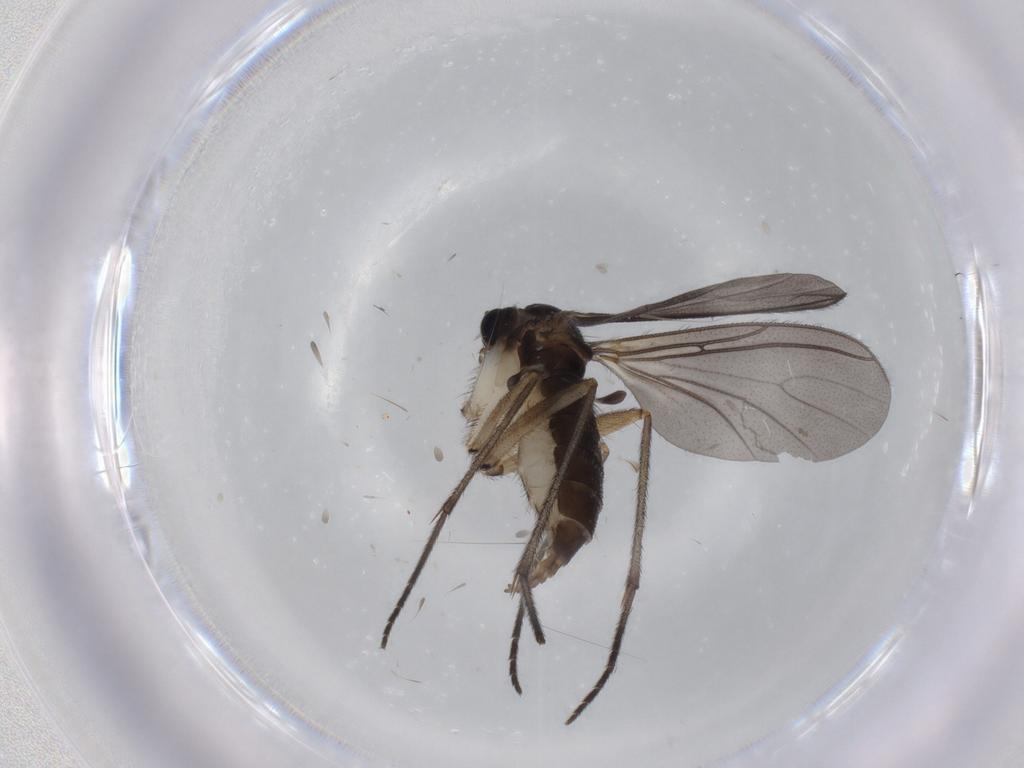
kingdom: Animalia
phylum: Arthropoda
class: Insecta
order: Diptera
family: Sciaridae
